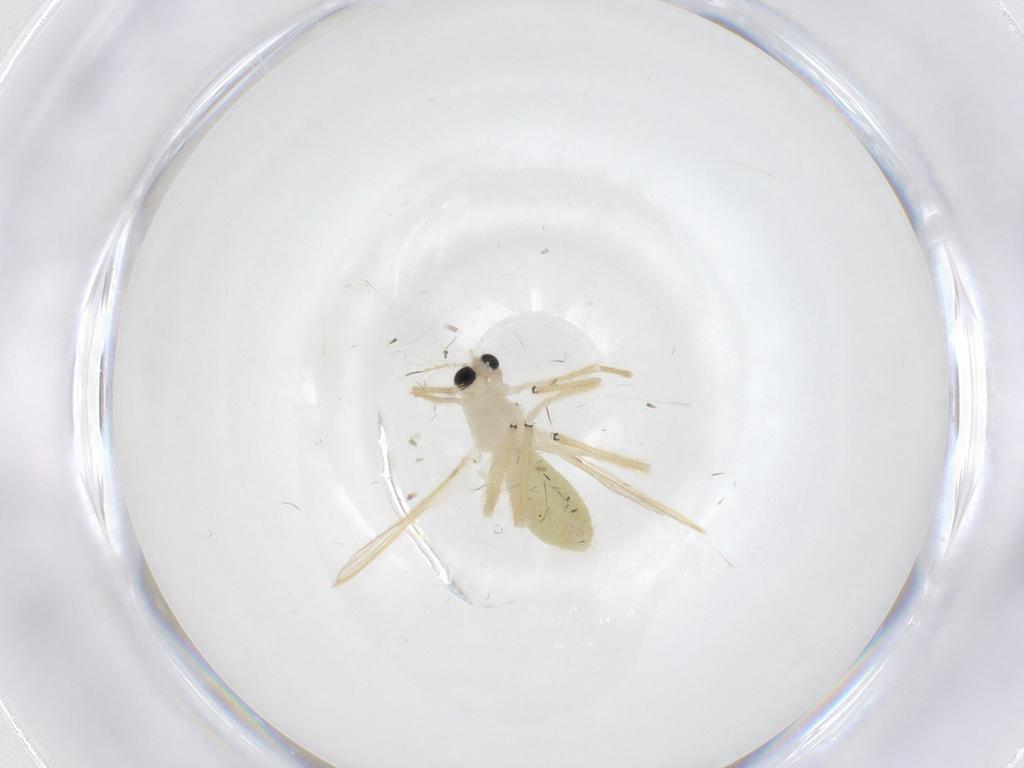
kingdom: Animalia
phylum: Arthropoda
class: Insecta
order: Diptera
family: Chironomidae
